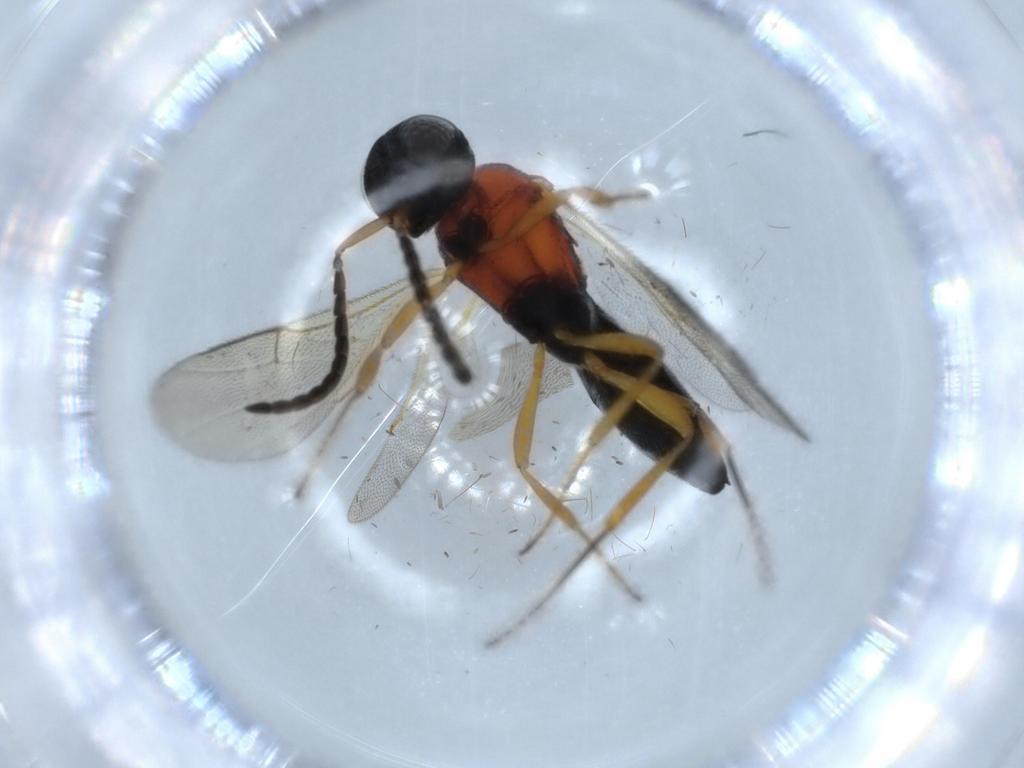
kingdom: Animalia
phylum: Arthropoda
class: Insecta
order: Hymenoptera
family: Scelionidae
